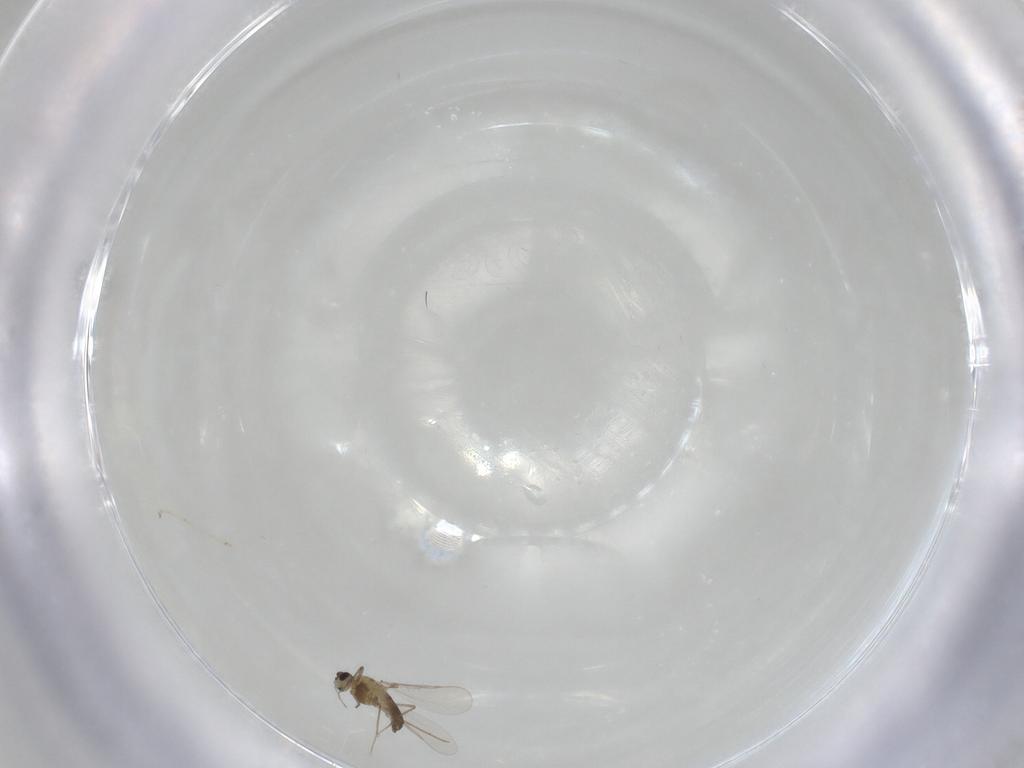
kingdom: Animalia
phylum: Arthropoda
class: Insecta
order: Diptera
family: Chironomidae
